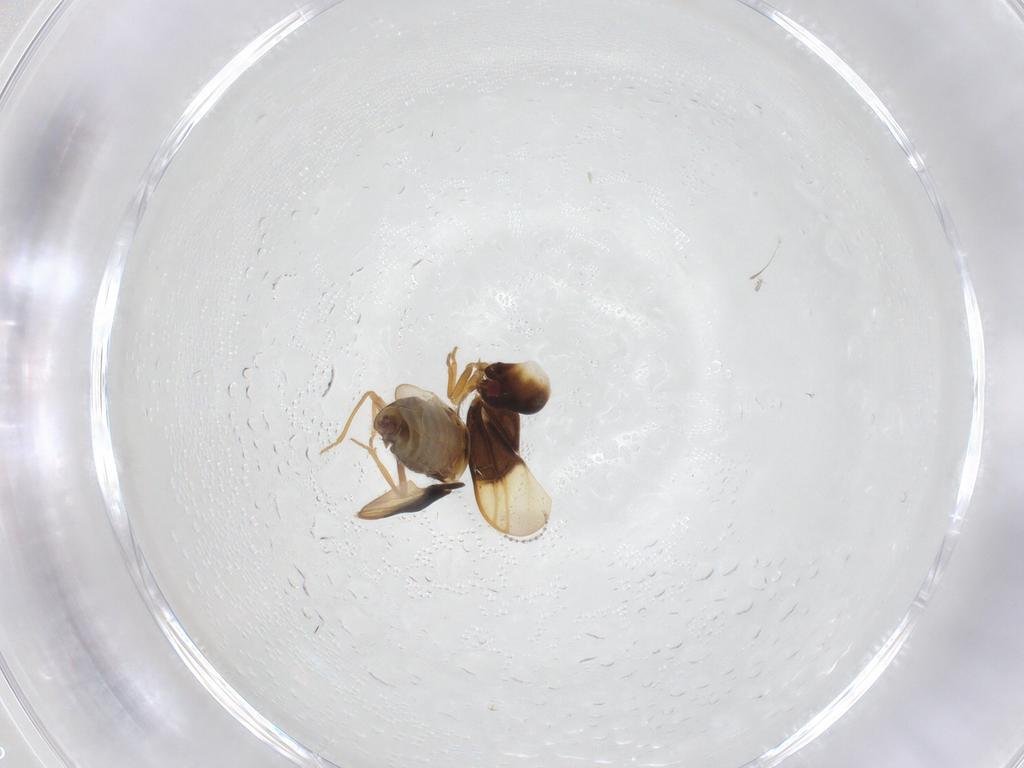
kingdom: Animalia
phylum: Arthropoda
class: Insecta
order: Hemiptera
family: Schizopteridae
